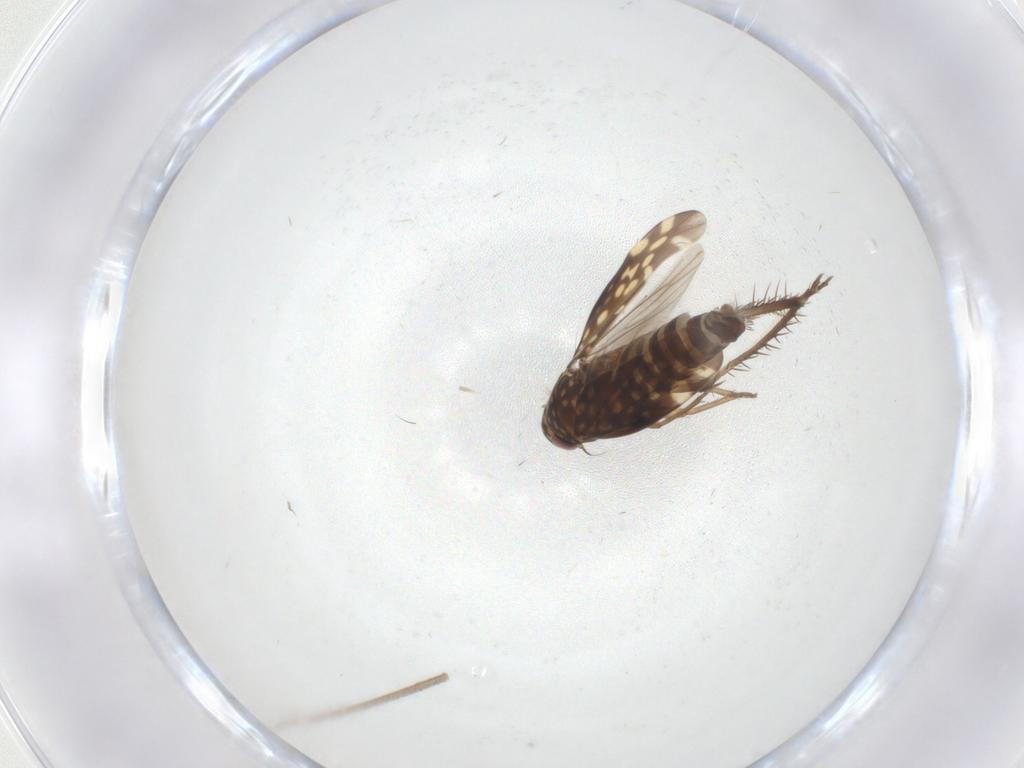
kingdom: Animalia
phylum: Arthropoda
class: Insecta
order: Hemiptera
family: Cicadellidae
